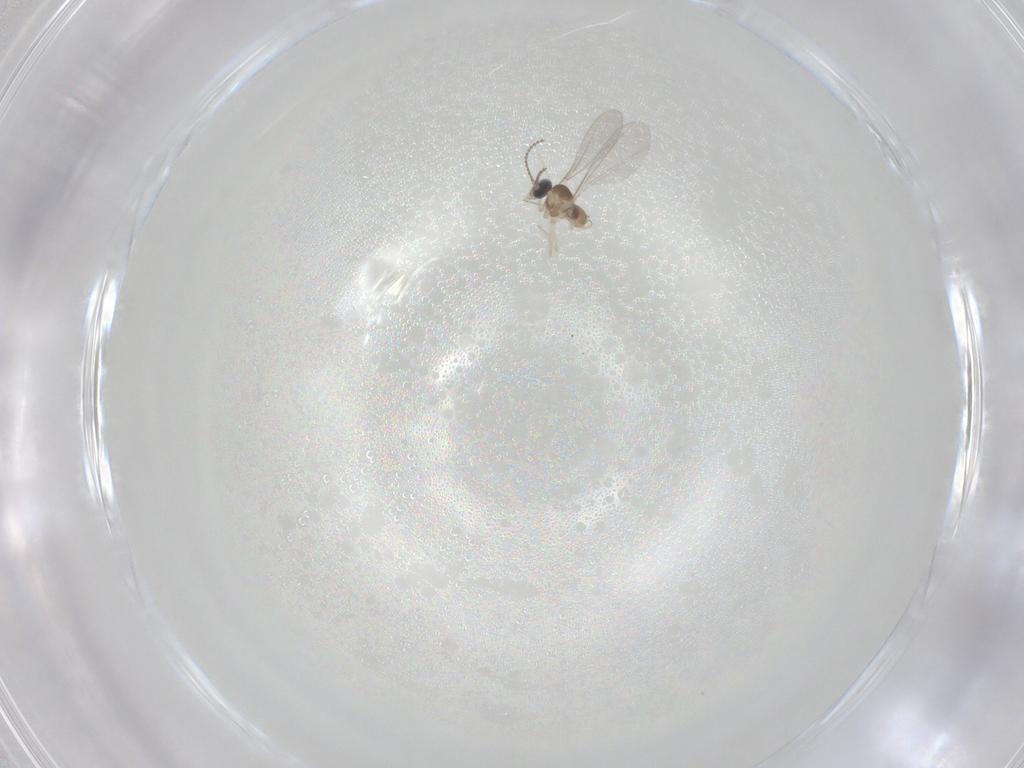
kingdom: Animalia
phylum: Arthropoda
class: Insecta
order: Diptera
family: Cecidomyiidae
